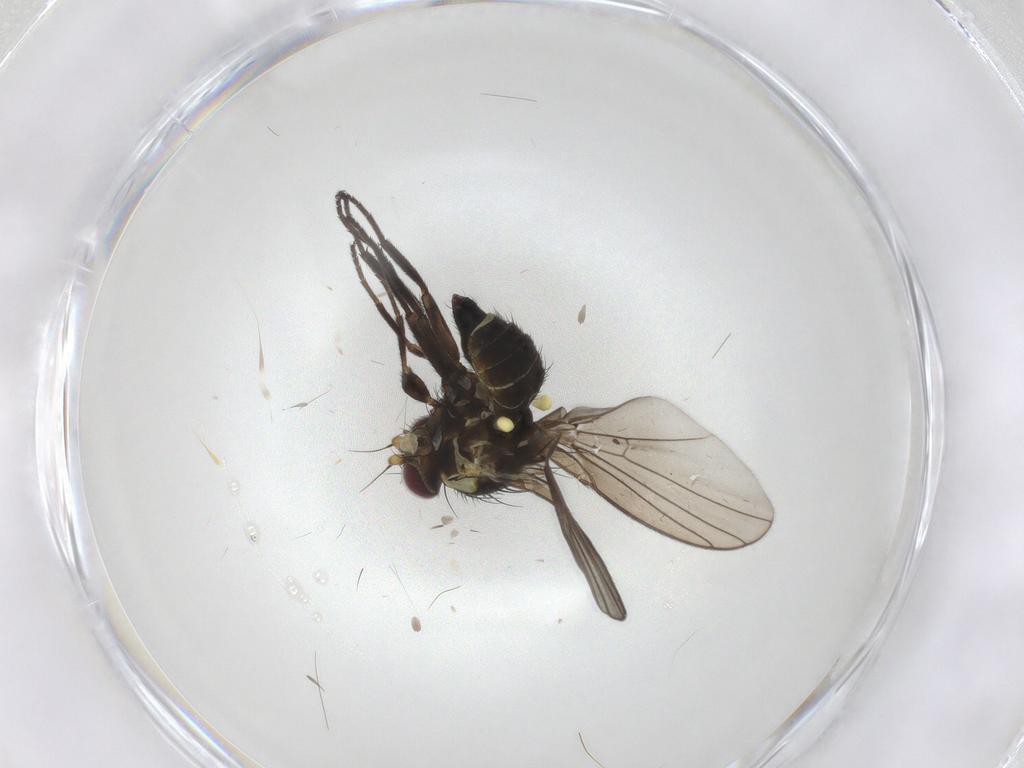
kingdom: Animalia
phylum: Arthropoda
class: Insecta
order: Diptera
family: Agromyzidae
